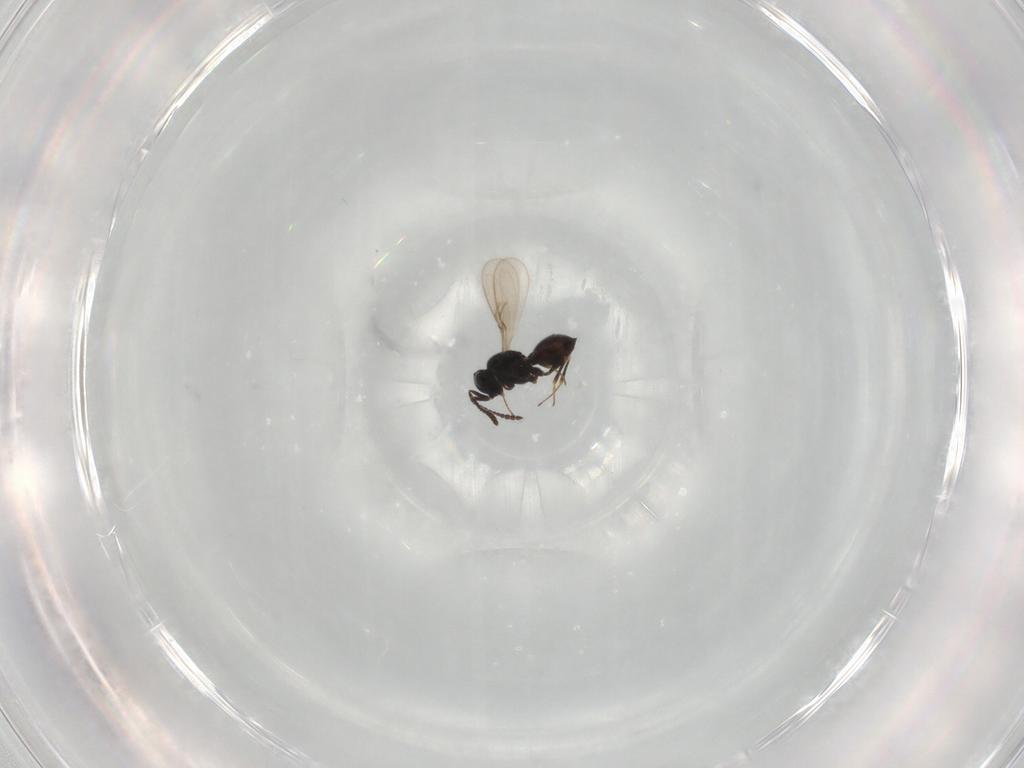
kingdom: Animalia
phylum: Arthropoda
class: Insecta
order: Hymenoptera
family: Scelionidae
